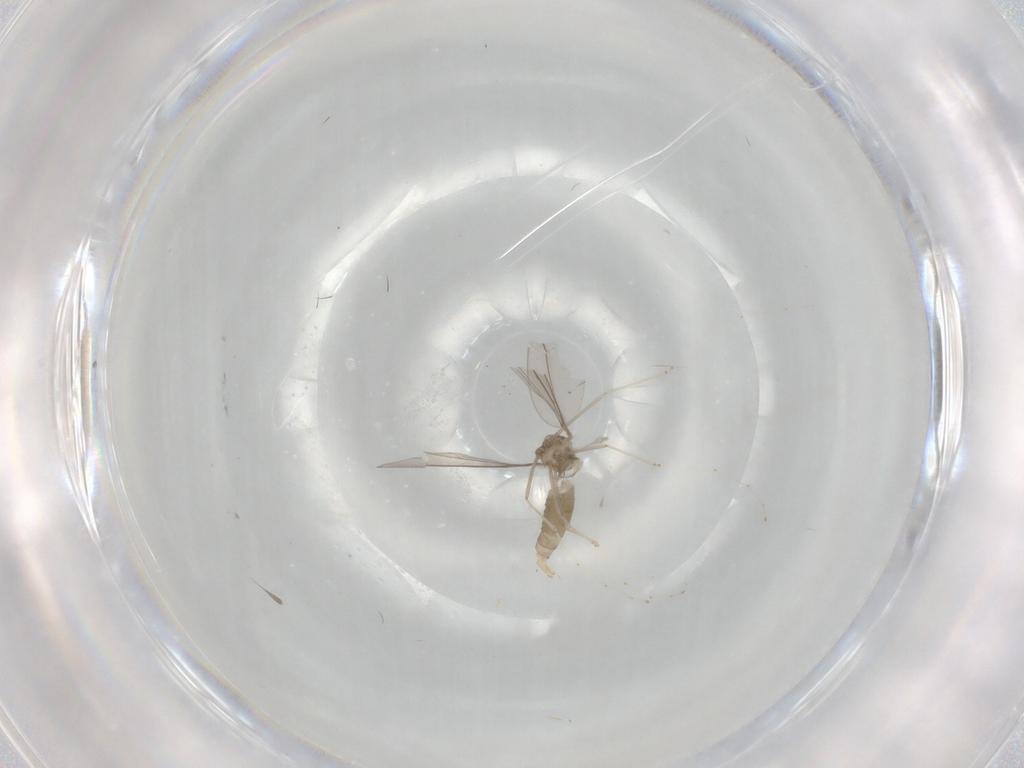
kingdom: Animalia
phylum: Arthropoda
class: Insecta
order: Diptera
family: Cecidomyiidae
